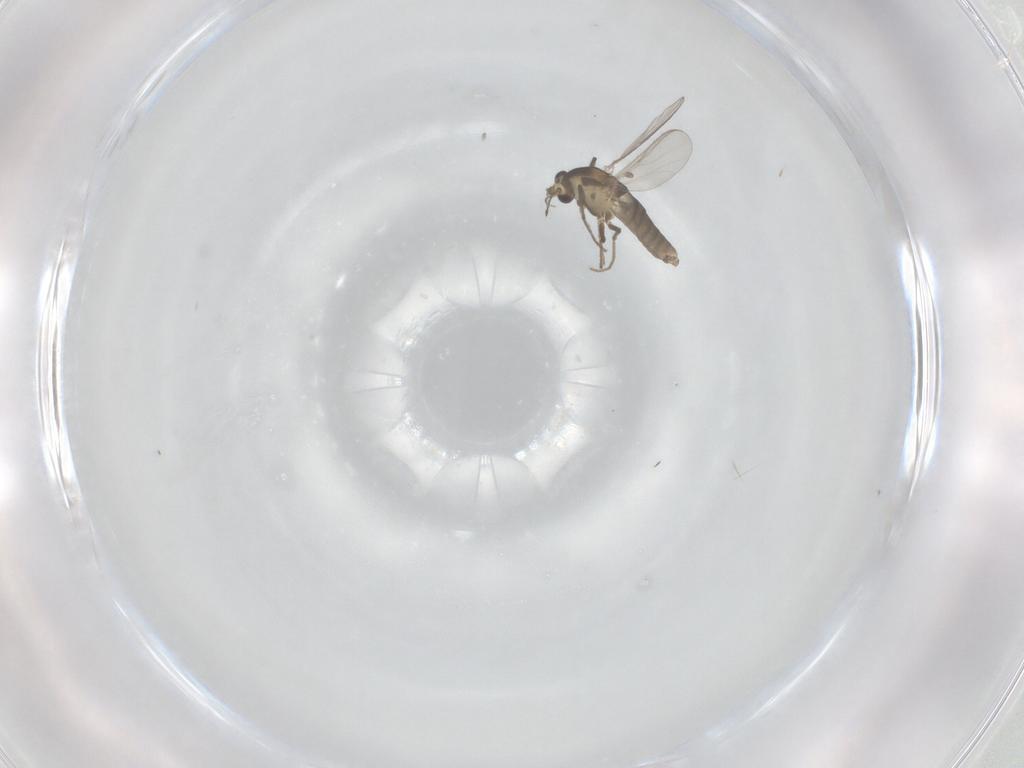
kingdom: Animalia
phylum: Arthropoda
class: Insecta
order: Diptera
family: Chironomidae
